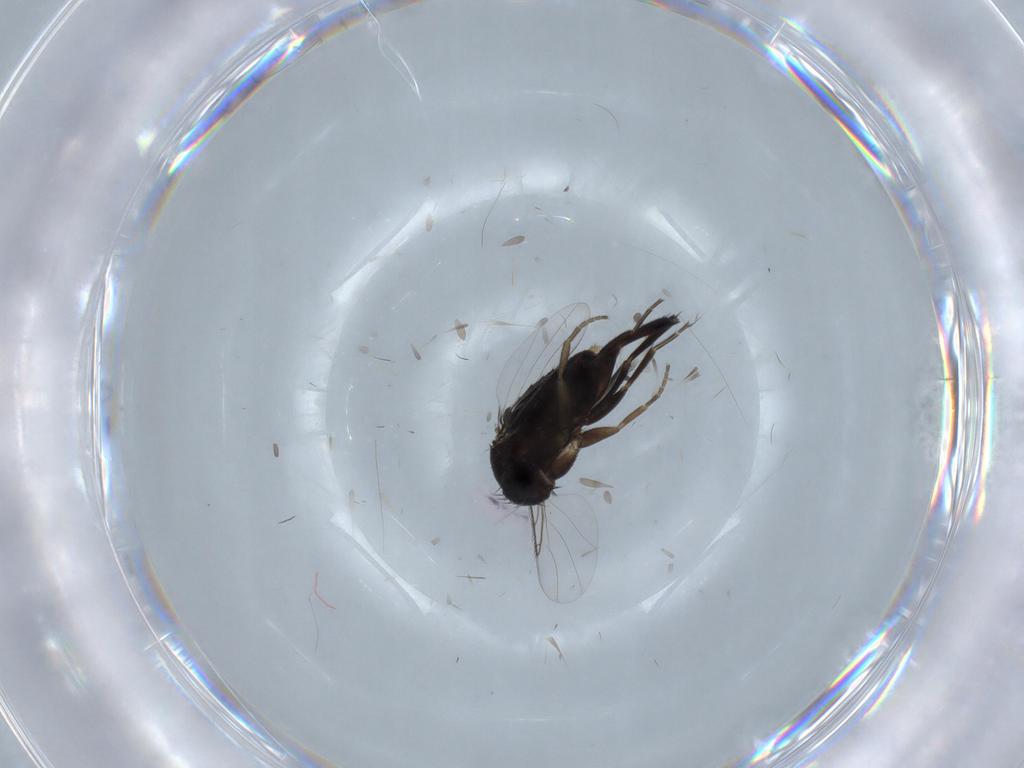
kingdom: Animalia
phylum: Arthropoda
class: Insecta
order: Diptera
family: Phoridae
